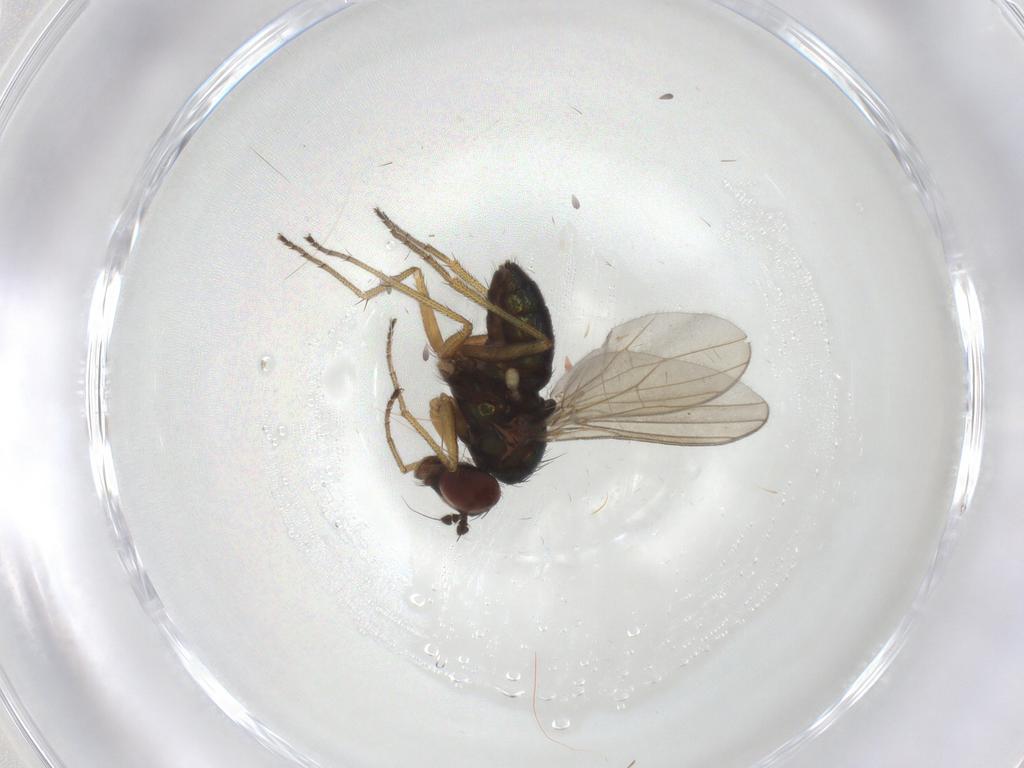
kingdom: Animalia
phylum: Arthropoda
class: Insecta
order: Diptera
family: Dolichopodidae
